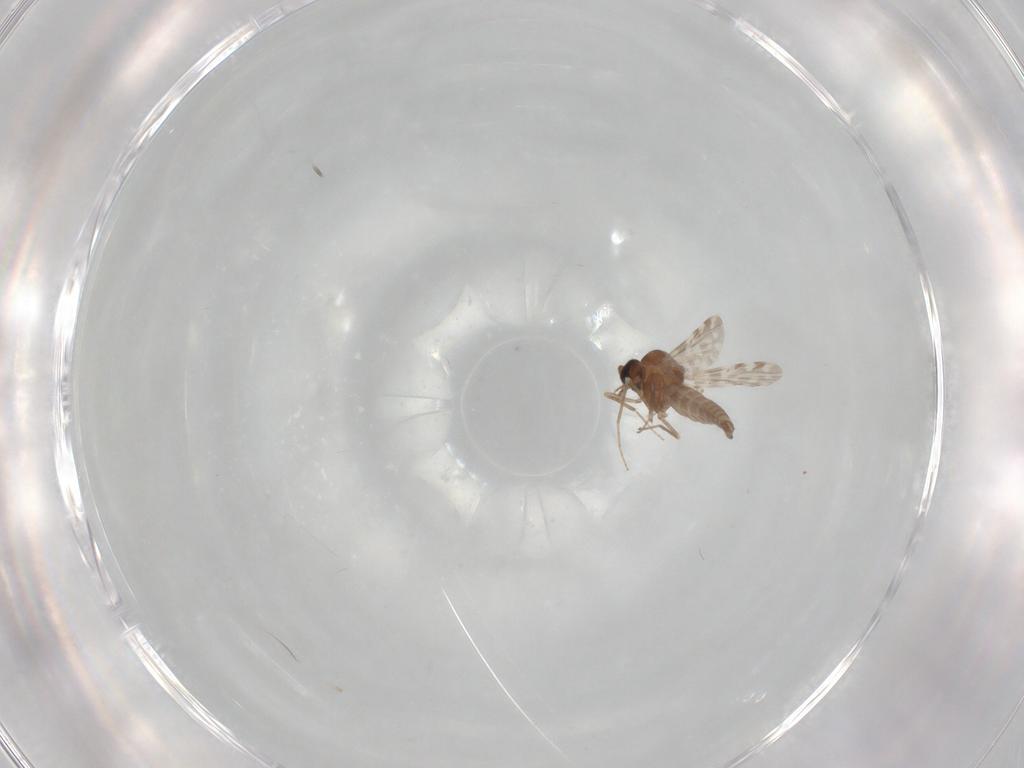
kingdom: Animalia
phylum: Arthropoda
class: Insecta
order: Diptera
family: Ceratopogonidae
